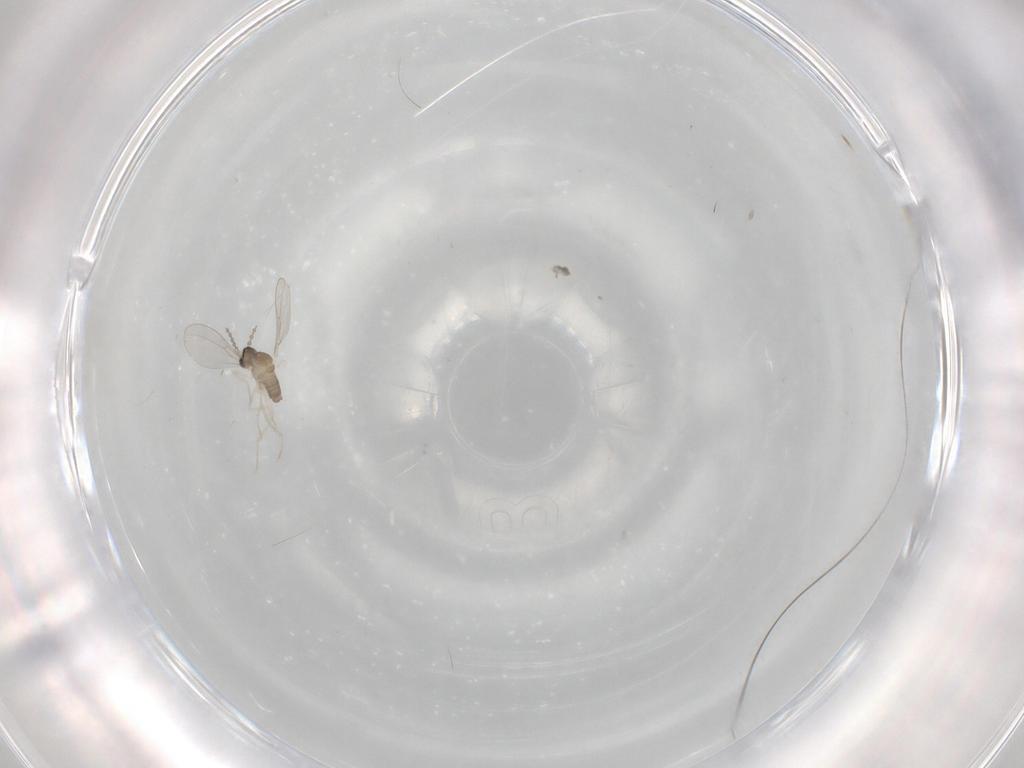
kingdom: Animalia
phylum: Arthropoda
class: Insecta
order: Diptera
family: Cecidomyiidae
